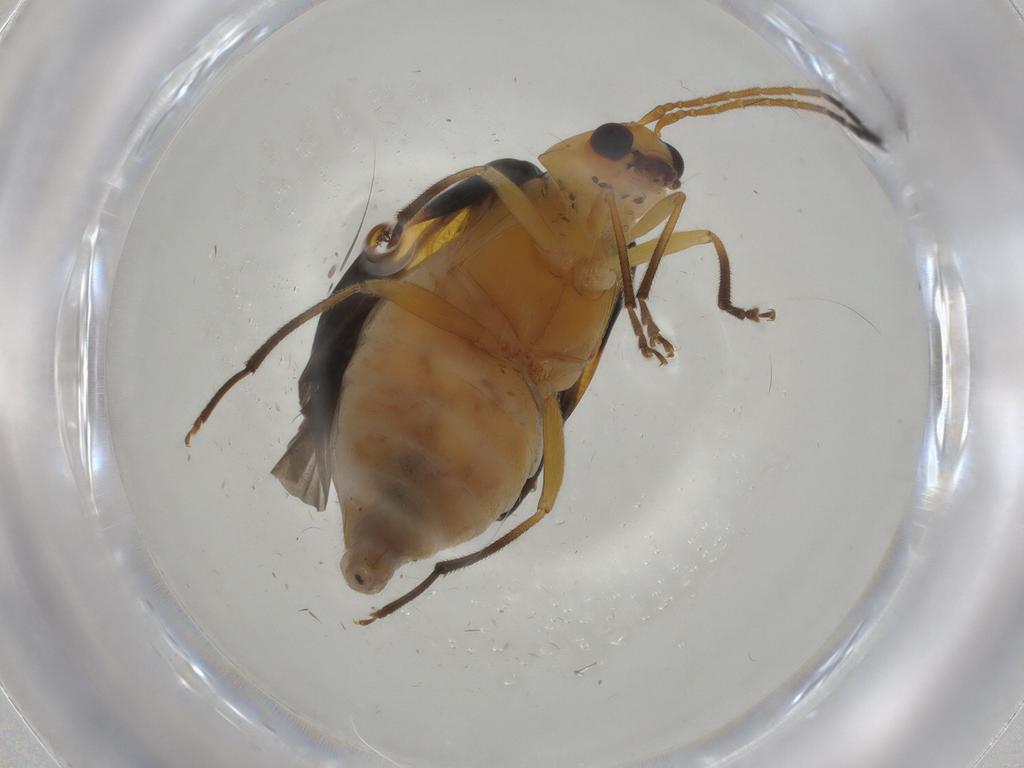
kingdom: Animalia
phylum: Arthropoda
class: Insecta
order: Coleoptera
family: Chrysomelidae
